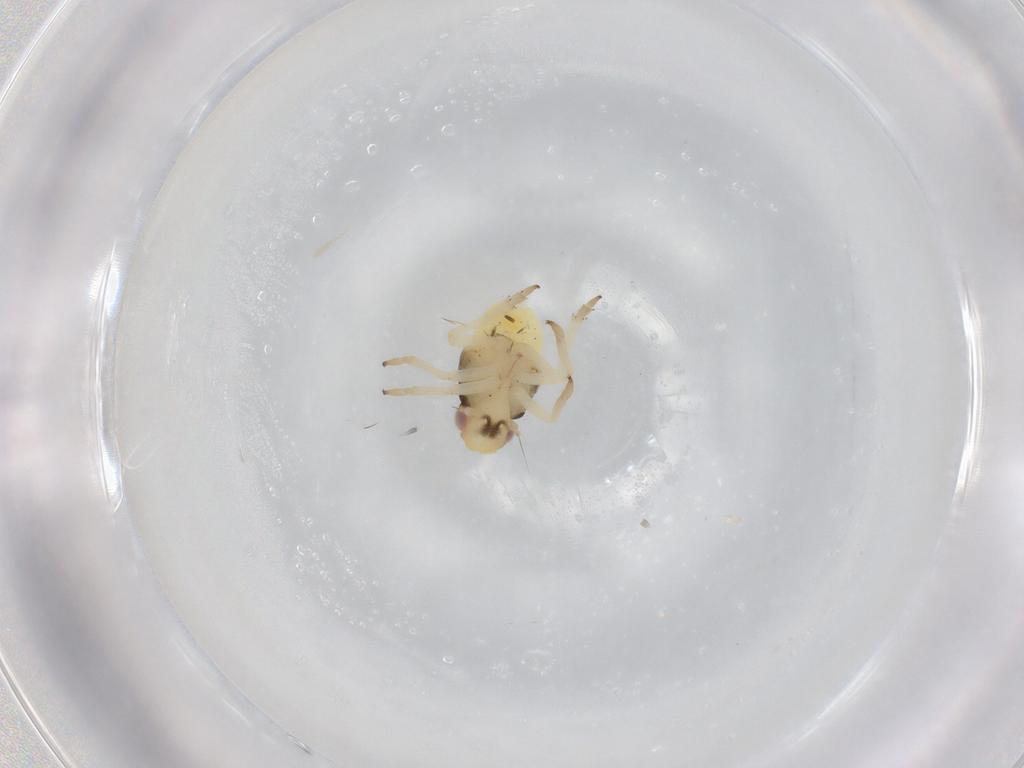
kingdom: Animalia
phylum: Arthropoda
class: Insecta
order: Hemiptera
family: Caliscelidae
